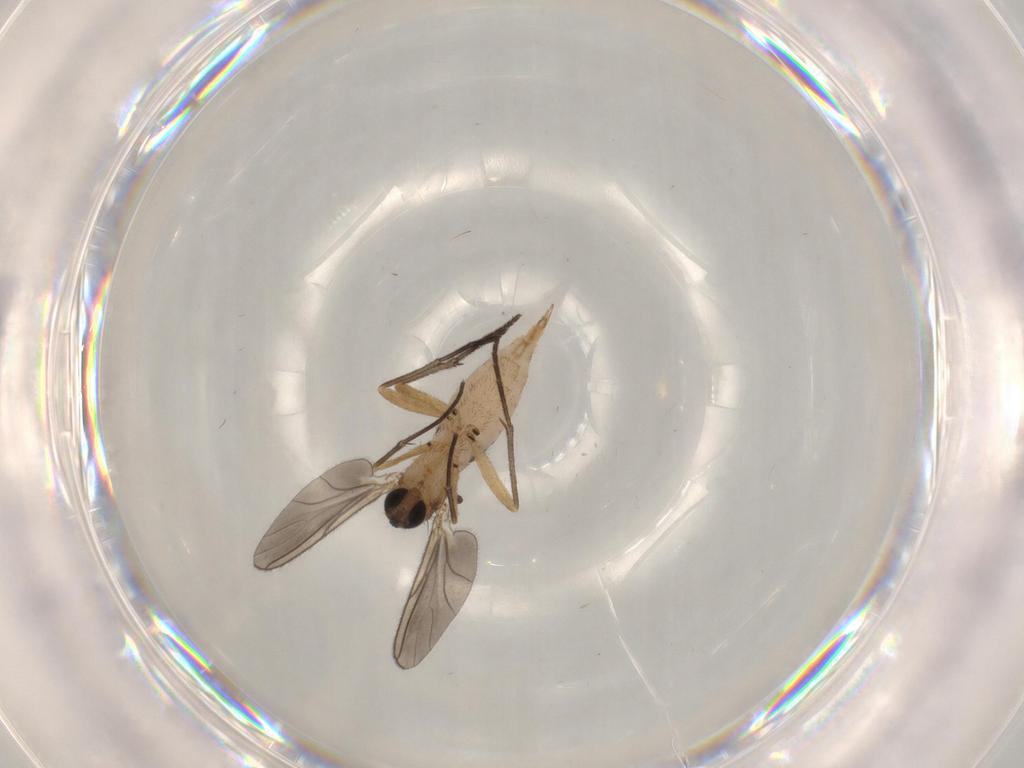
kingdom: Animalia
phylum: Arthropoda
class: Insecta
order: Diptera
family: Sciaridae
